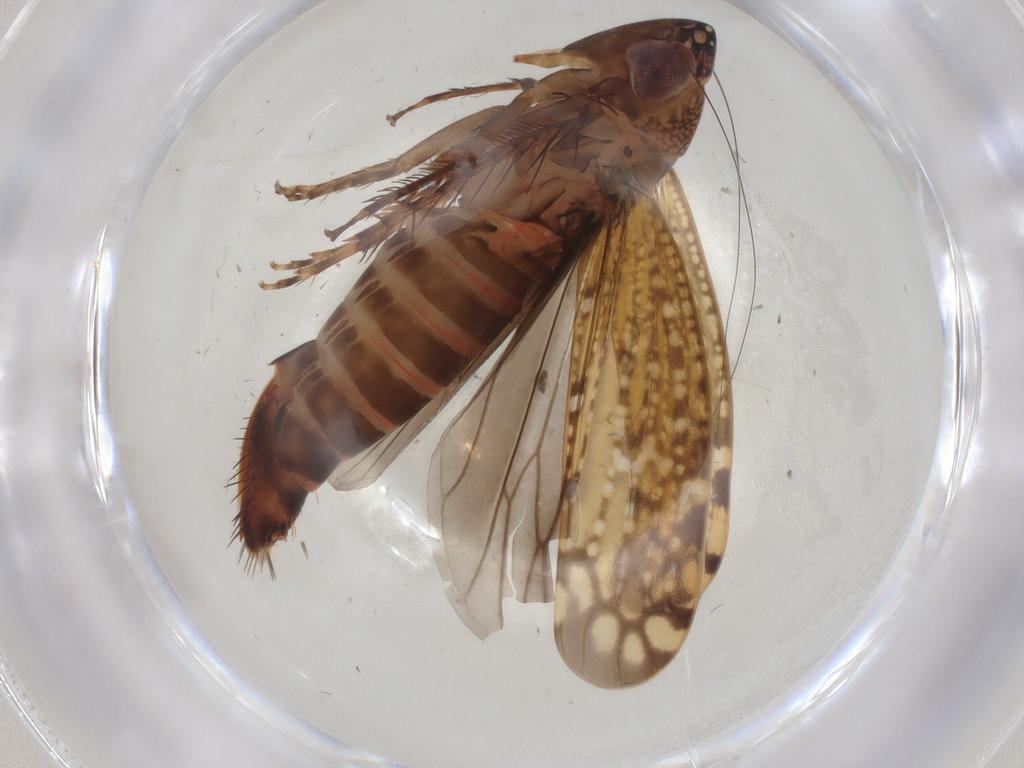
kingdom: Animalia
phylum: Arthropoda
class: Insecta
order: Hemiptera
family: Cicadellidae
